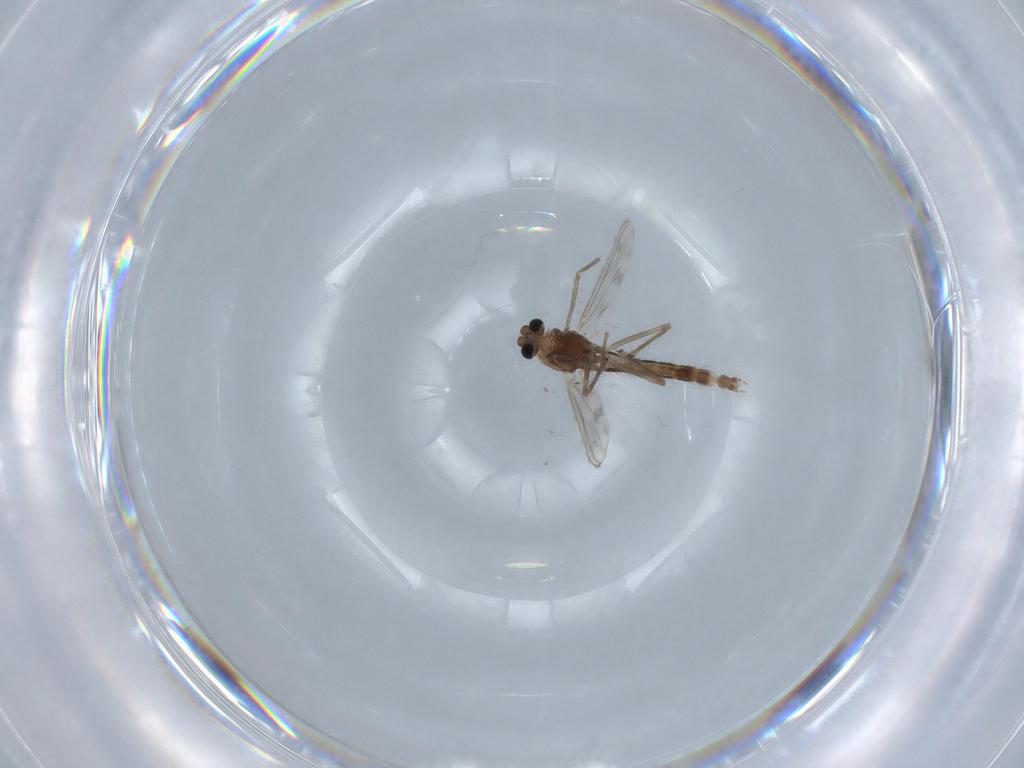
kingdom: Animalia
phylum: Arthropoda
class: Insecta
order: Diptera
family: Chironomidae
